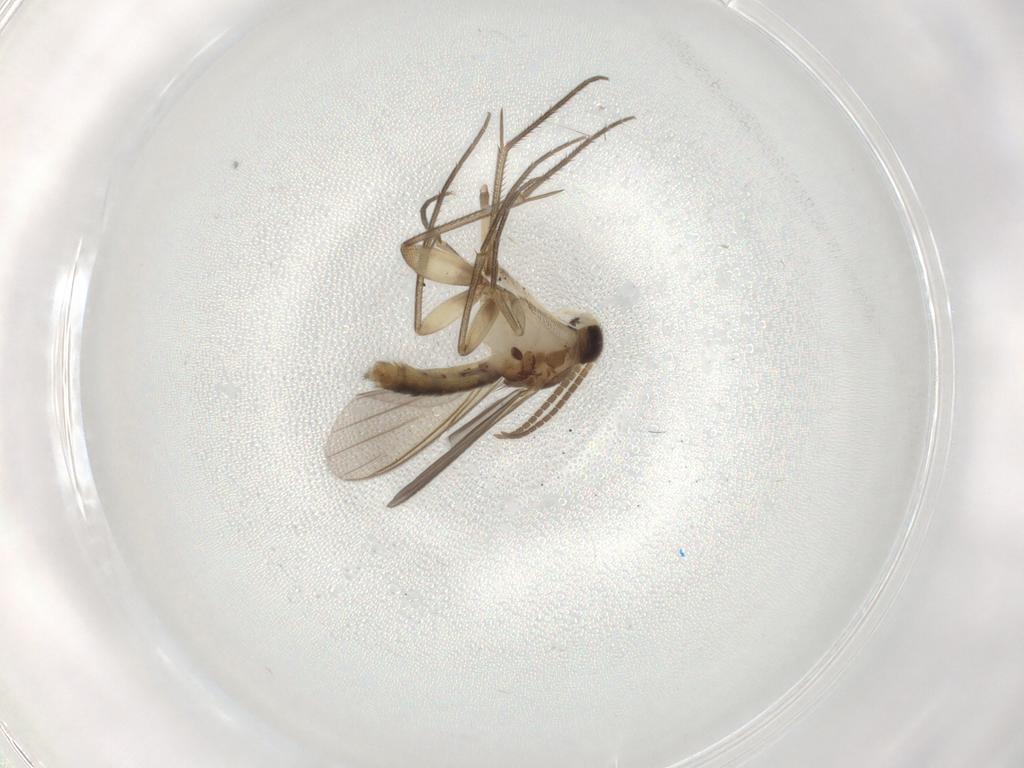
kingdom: Animalia
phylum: Arthropoda
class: Insecta
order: Diptera
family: Mycetophilidae
